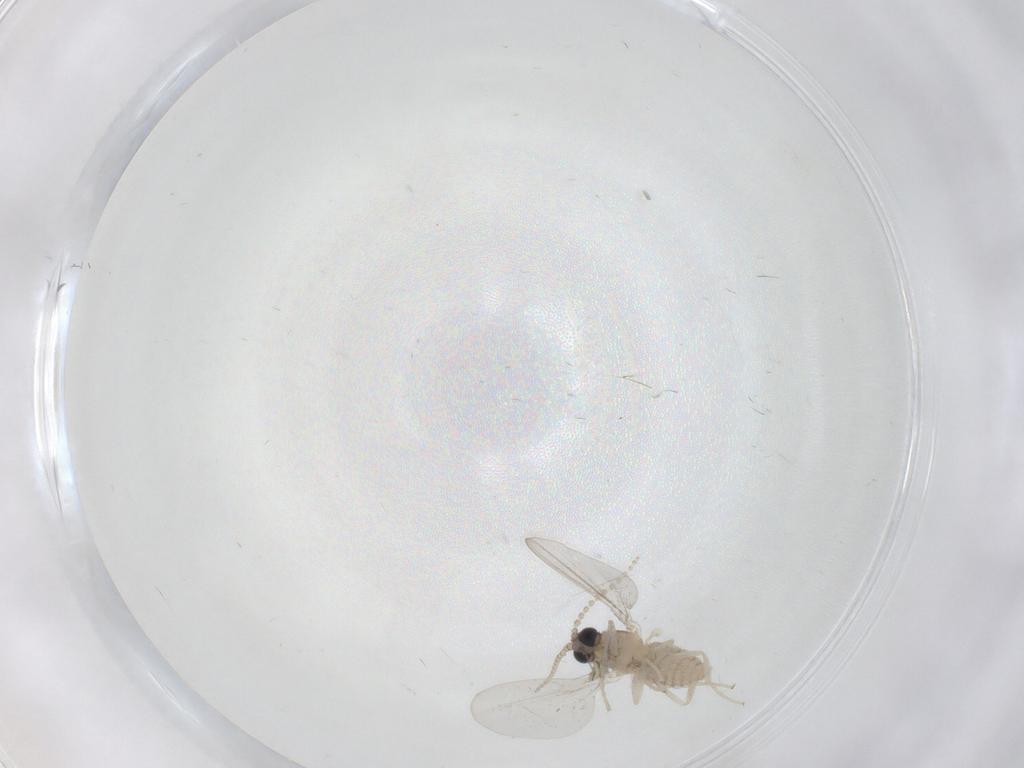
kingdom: Animalia
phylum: Arthropoda
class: Insecta
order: Diptera
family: Cecidomyiidae
